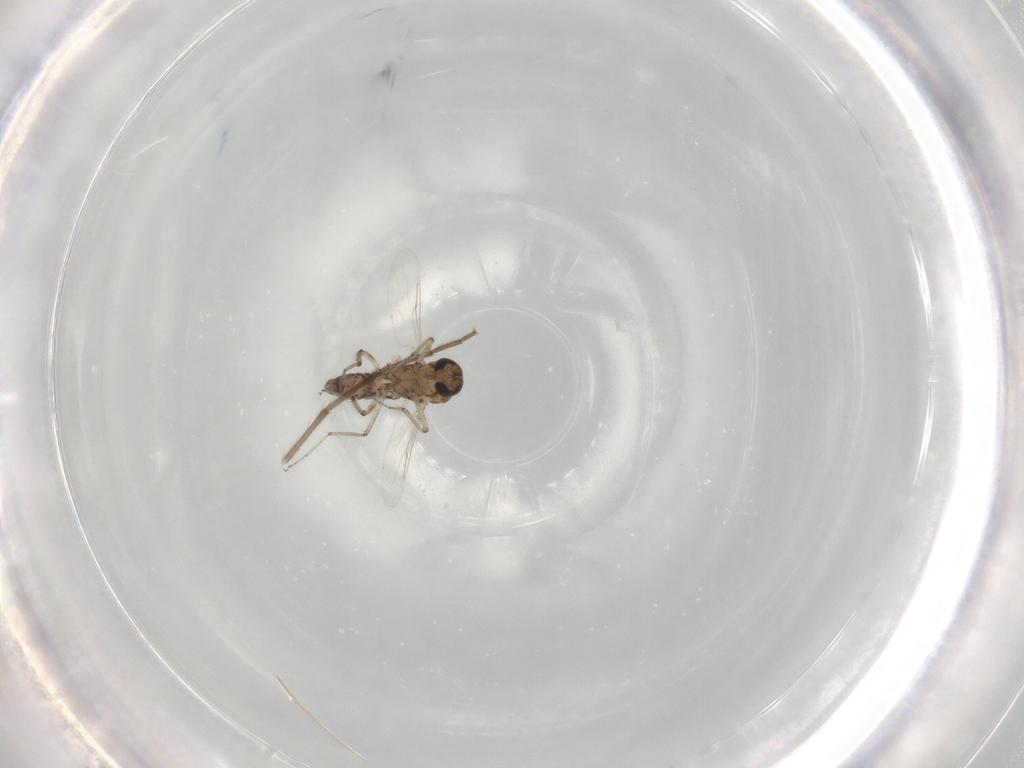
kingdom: Animalia
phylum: Arthropoda
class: Insecta
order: Diptera
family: Ceratopogonidae
